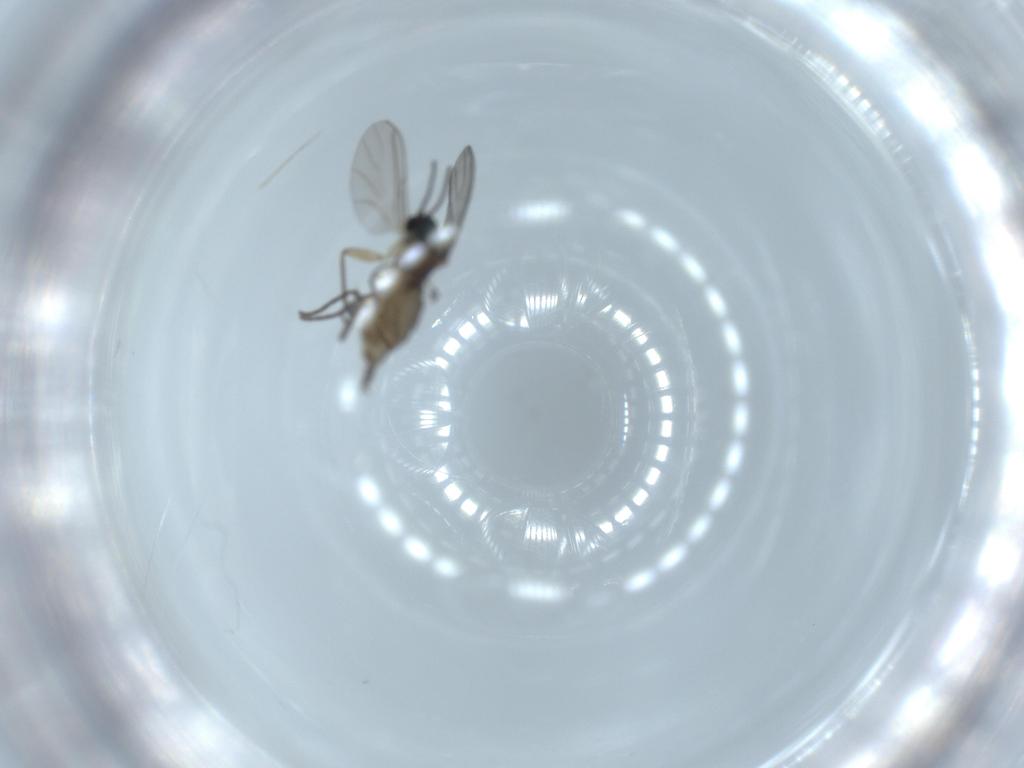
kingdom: Animalia
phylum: Arthropoda
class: Insecta
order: Diptera
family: Sciaridae
